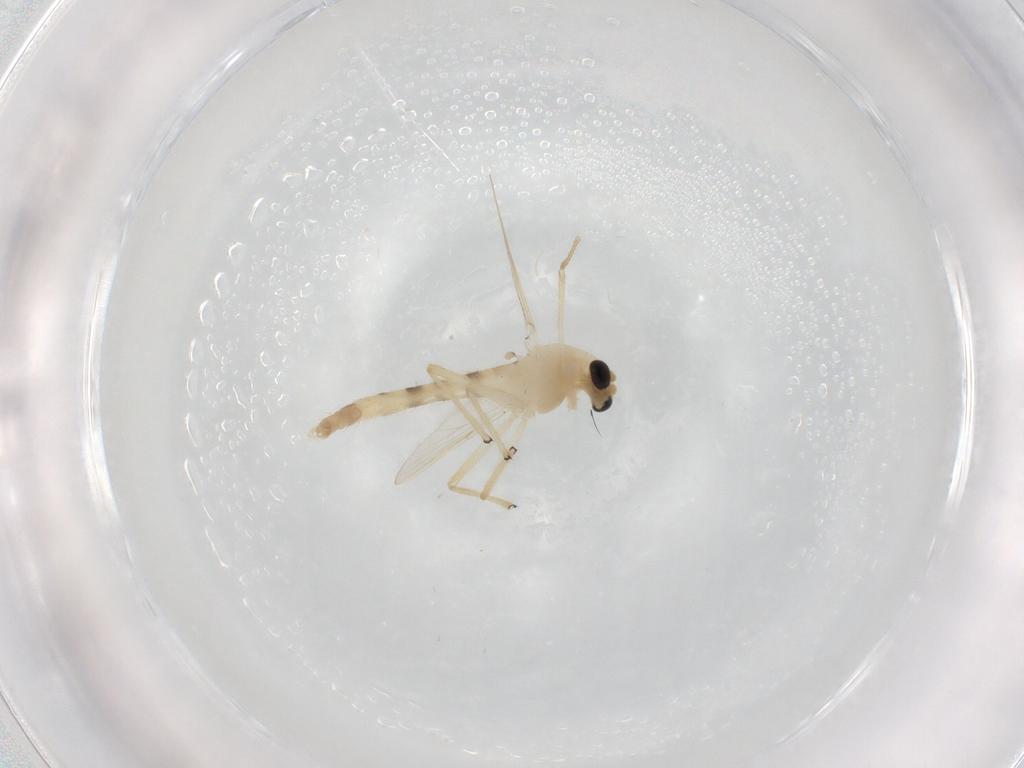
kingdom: Animalia
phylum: Arthropoda
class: Insecta
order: Diptera
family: Chironomidae
